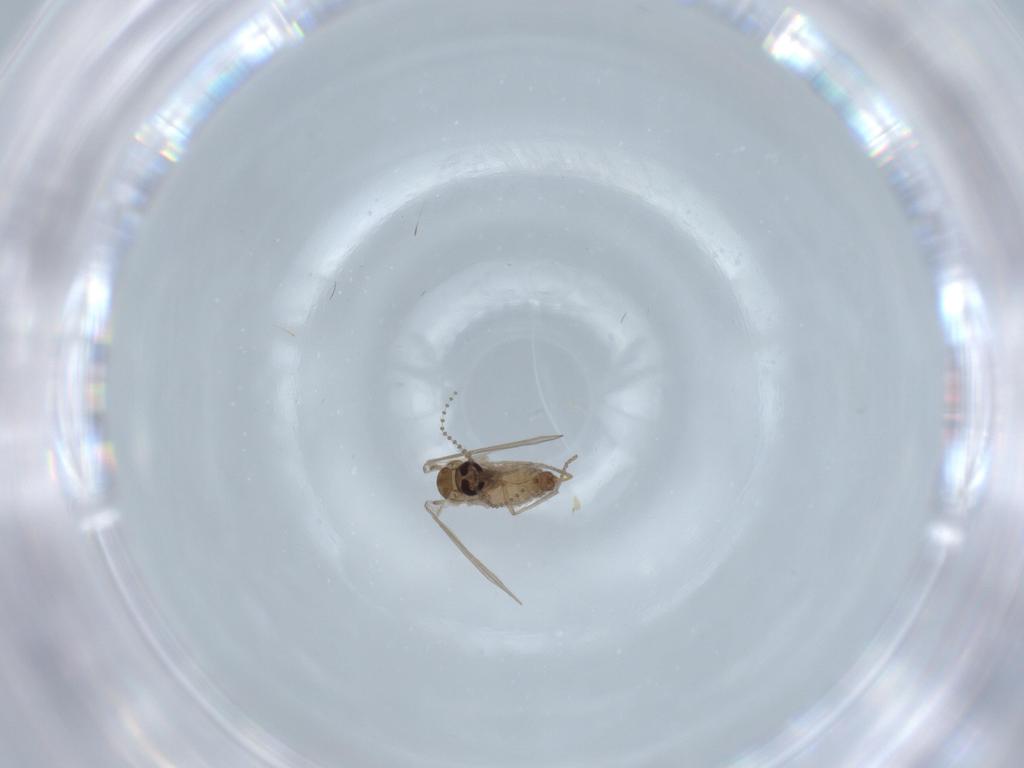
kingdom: Animalia
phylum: Arthropoda
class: Insecta
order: Diptera
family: Psychodidae
